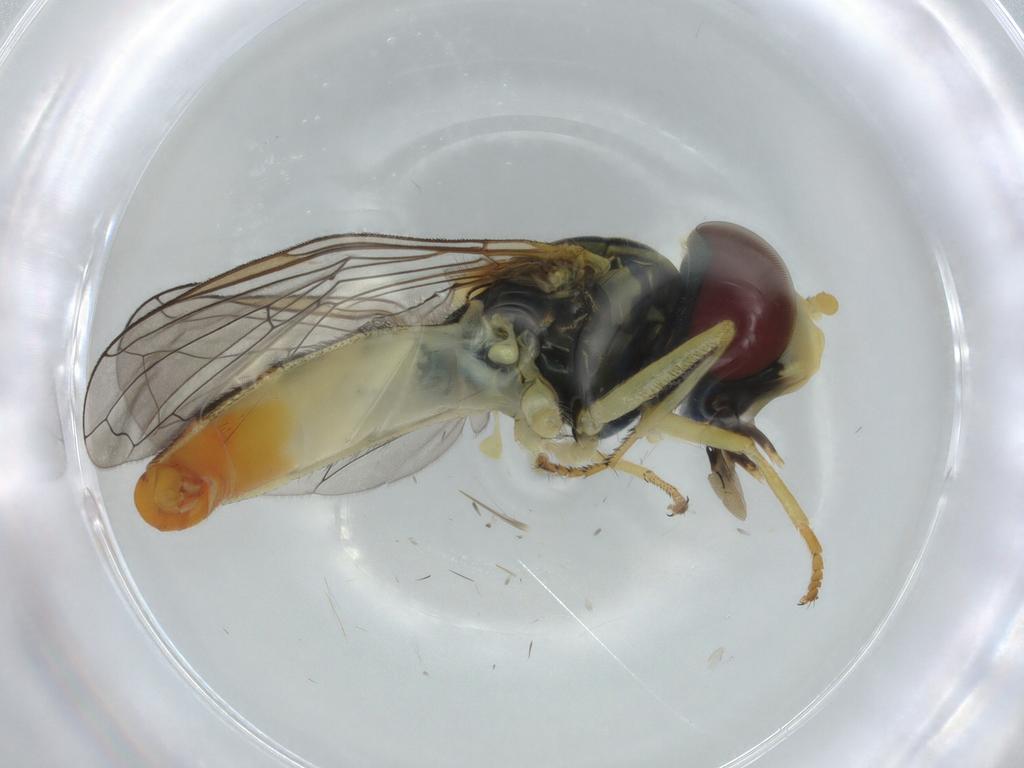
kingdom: Animalia
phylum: Arthropoda
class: Insecta
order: Diptera
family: Syrphidae
